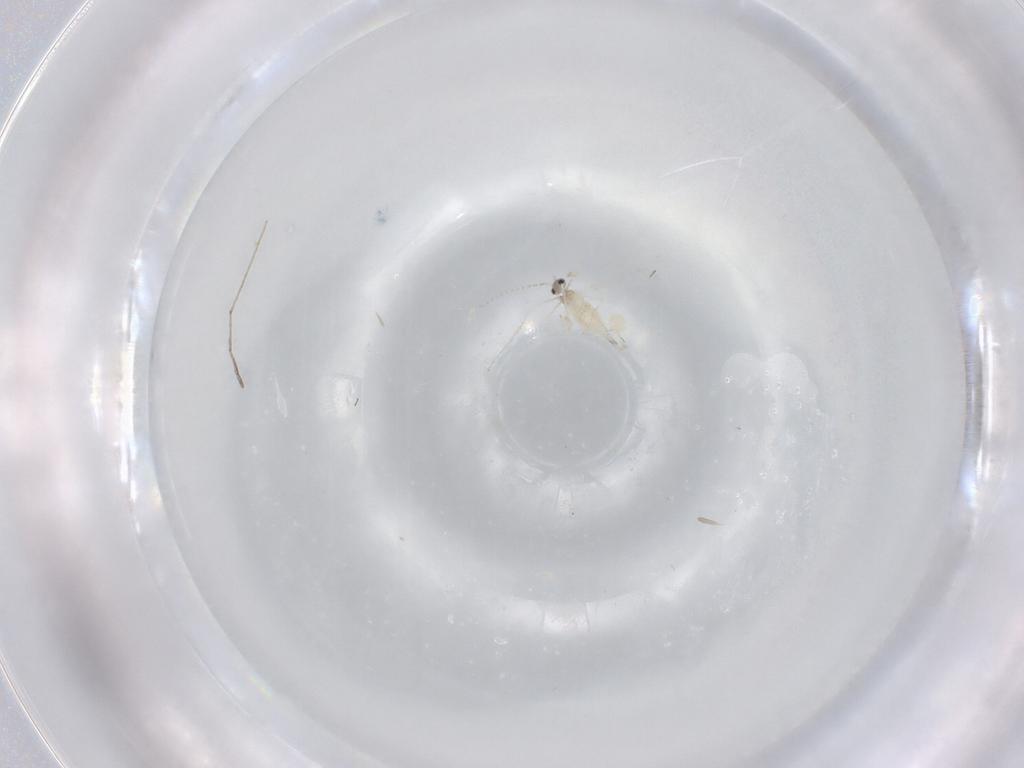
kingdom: Animalia
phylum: Arthropoda
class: Insecta
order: Diptera
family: Cecidomyiidae
